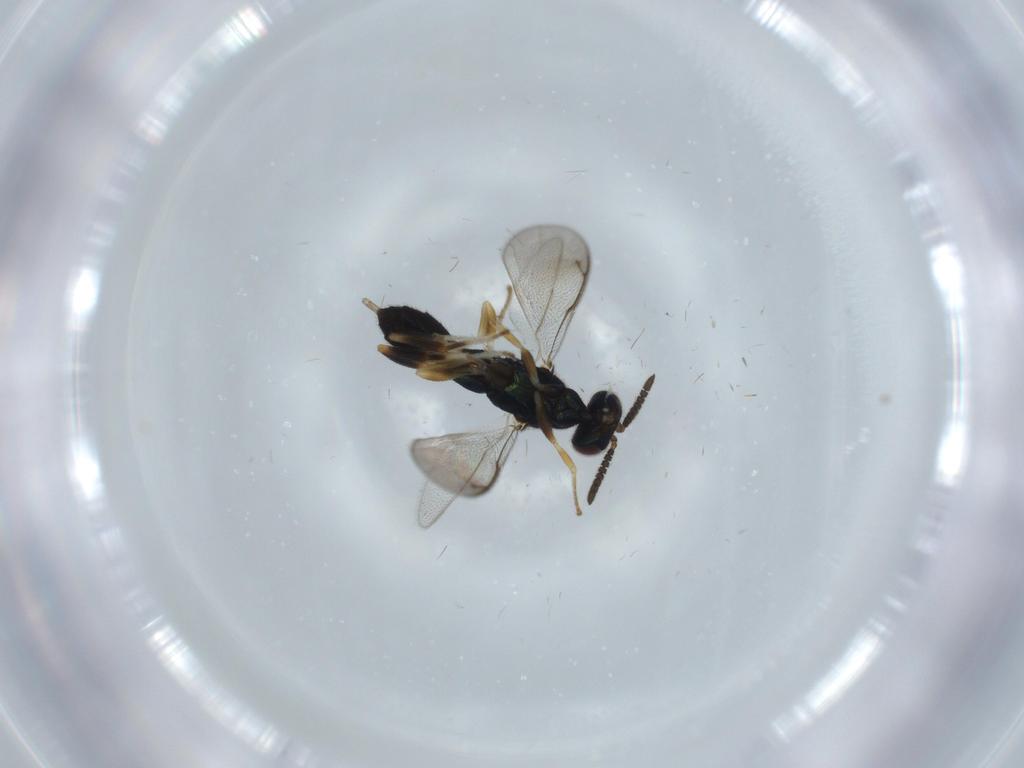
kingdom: Animalia
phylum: Arthropoda
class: Insecta
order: Hymenoptera
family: Cleonyminae
